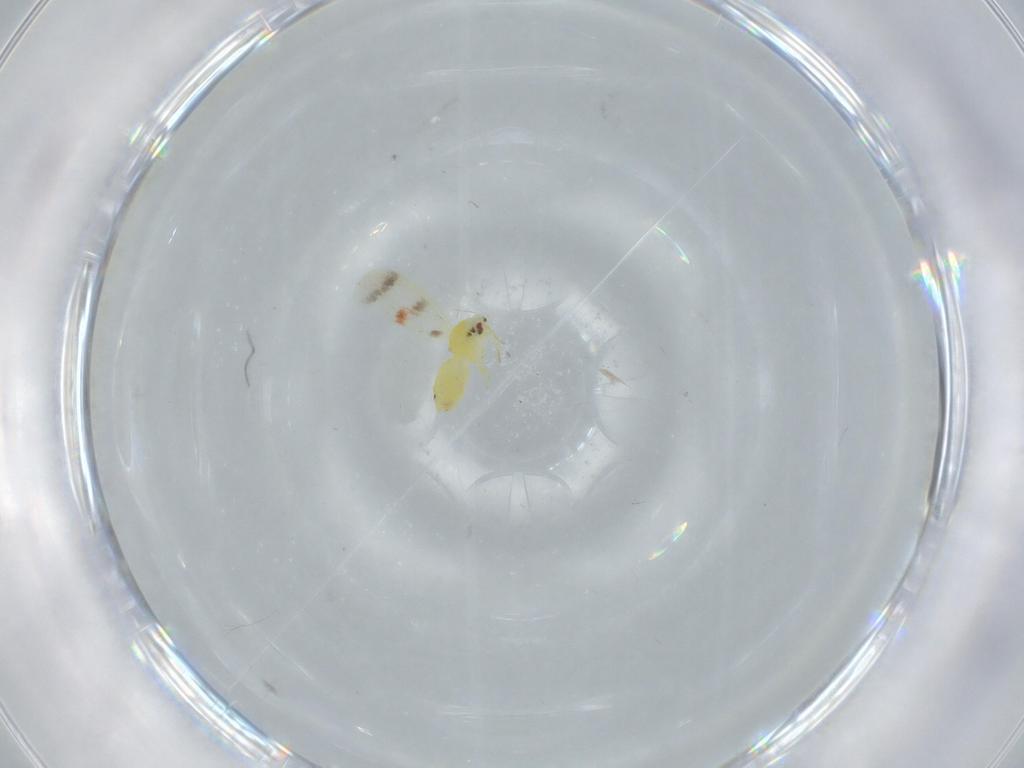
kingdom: Animalia
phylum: Arthropoda
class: Insecta
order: Hemiptera
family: Aleyrodidae
